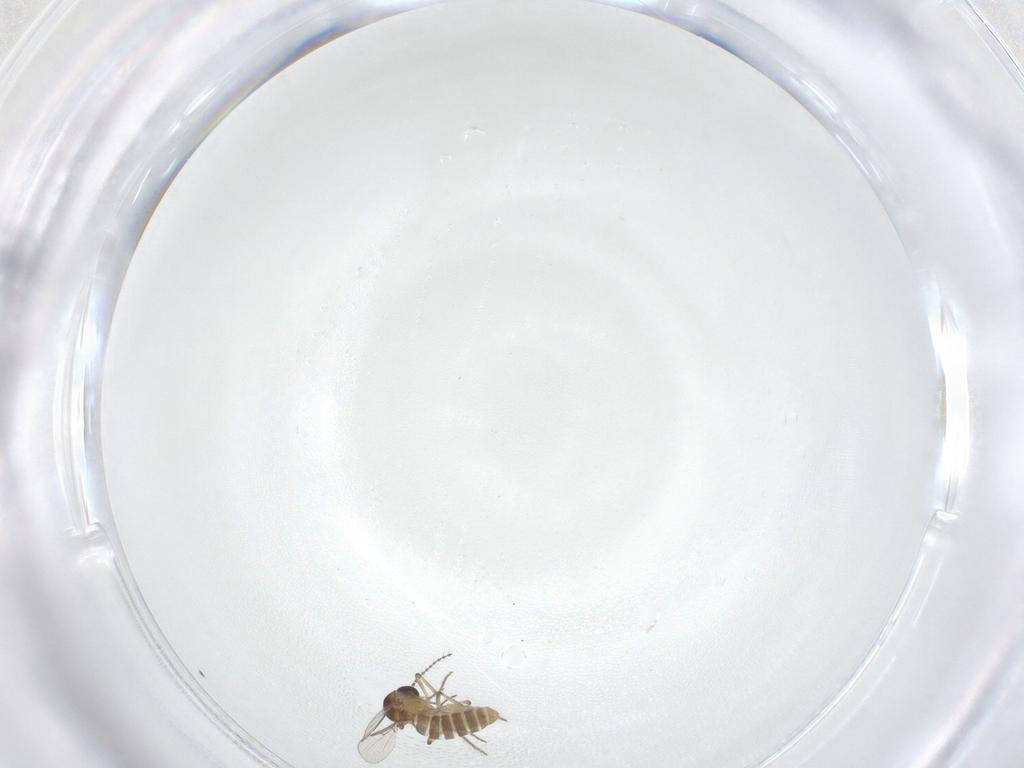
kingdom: Animalia
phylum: Arthropoda
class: Insecta
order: Diptera
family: Ceratopogonidae
